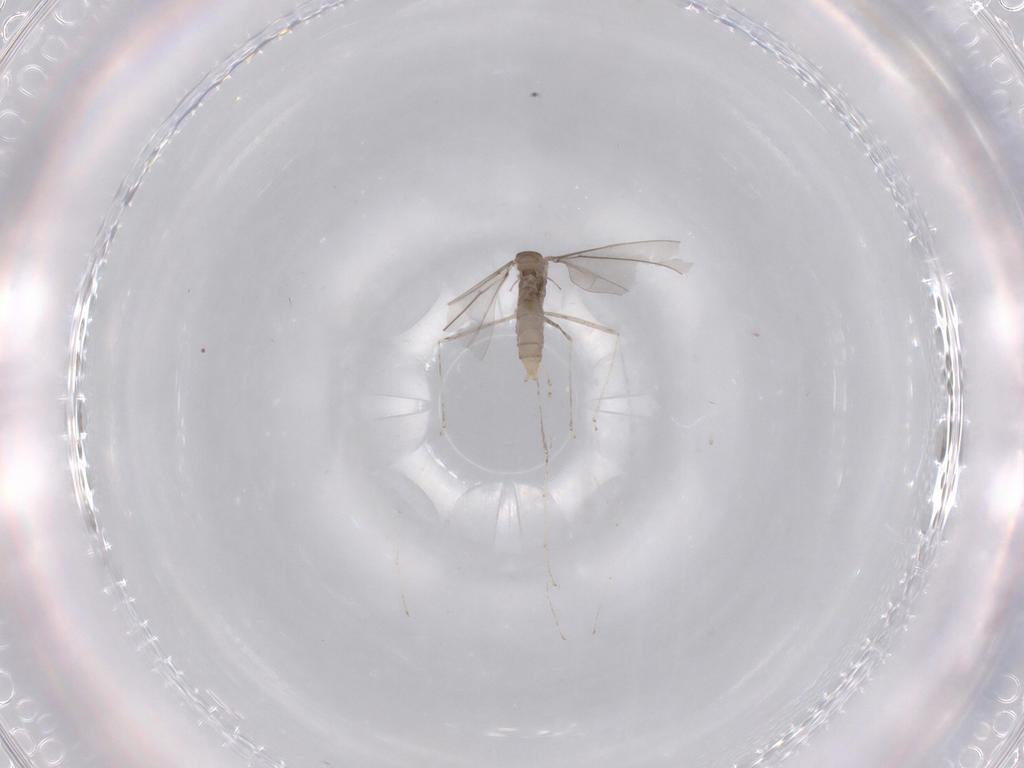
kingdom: Animalia
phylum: Arthropoda
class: Insecta
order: Diptera
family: Cecidomyiidae
